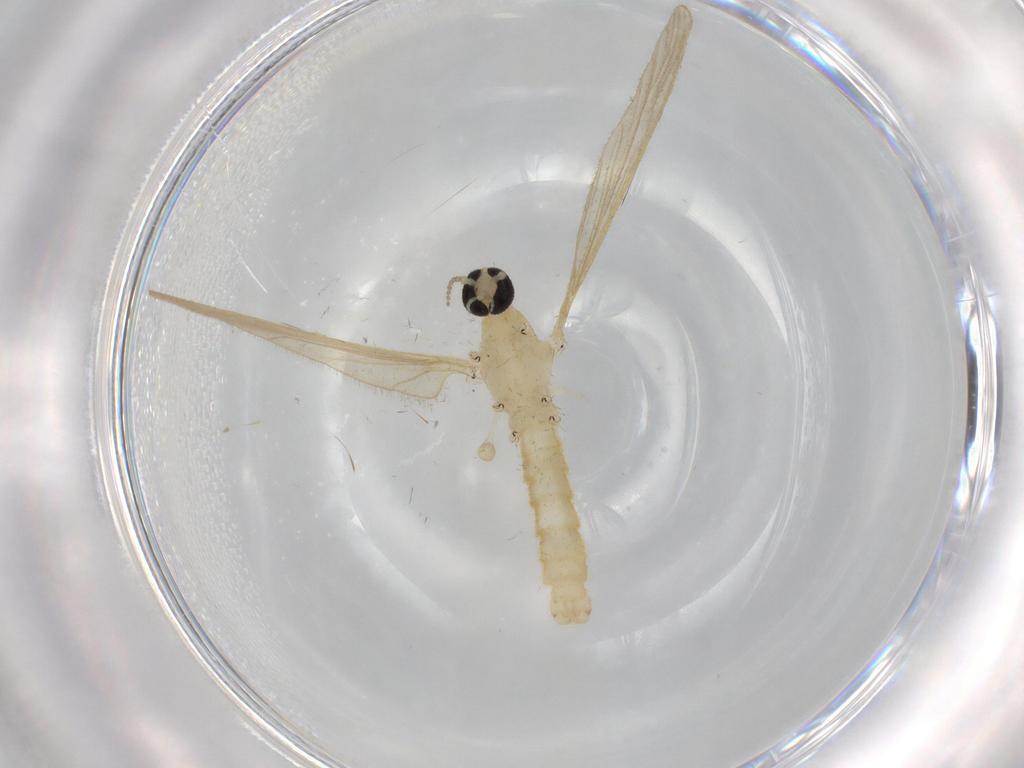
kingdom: Animalia
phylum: Arthropoda
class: Insecta
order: Diptera
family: Limoniidae
